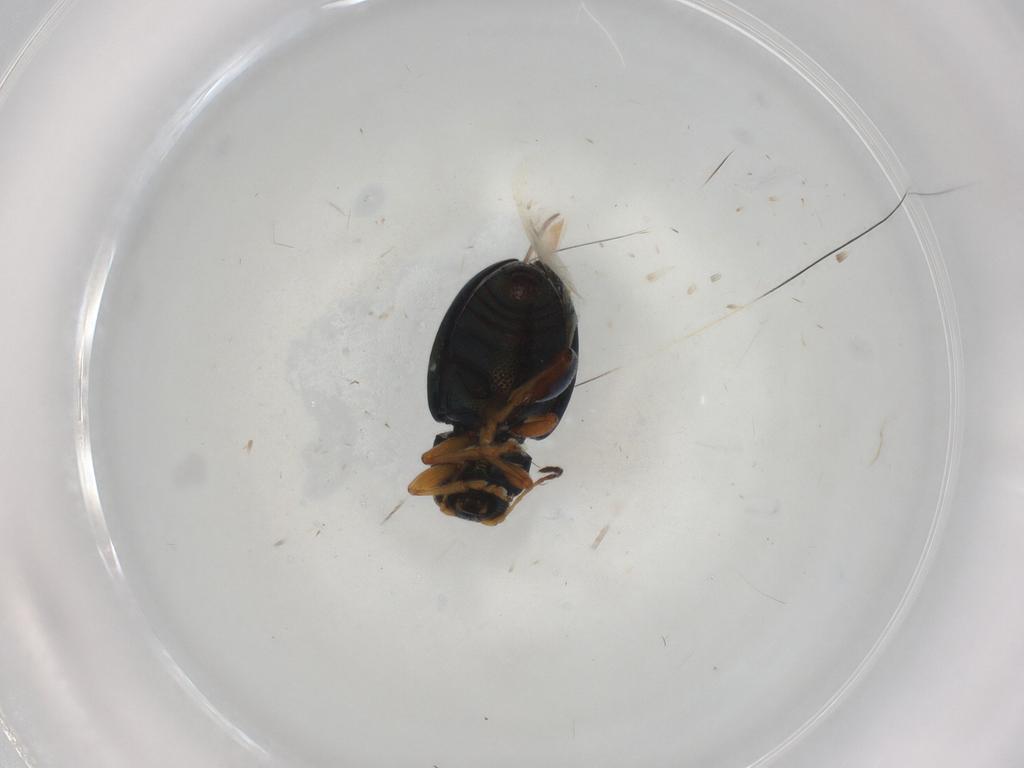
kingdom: Animalia
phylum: Arthropoda
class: Insecta
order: Coleoptera
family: Chrysomelidae
